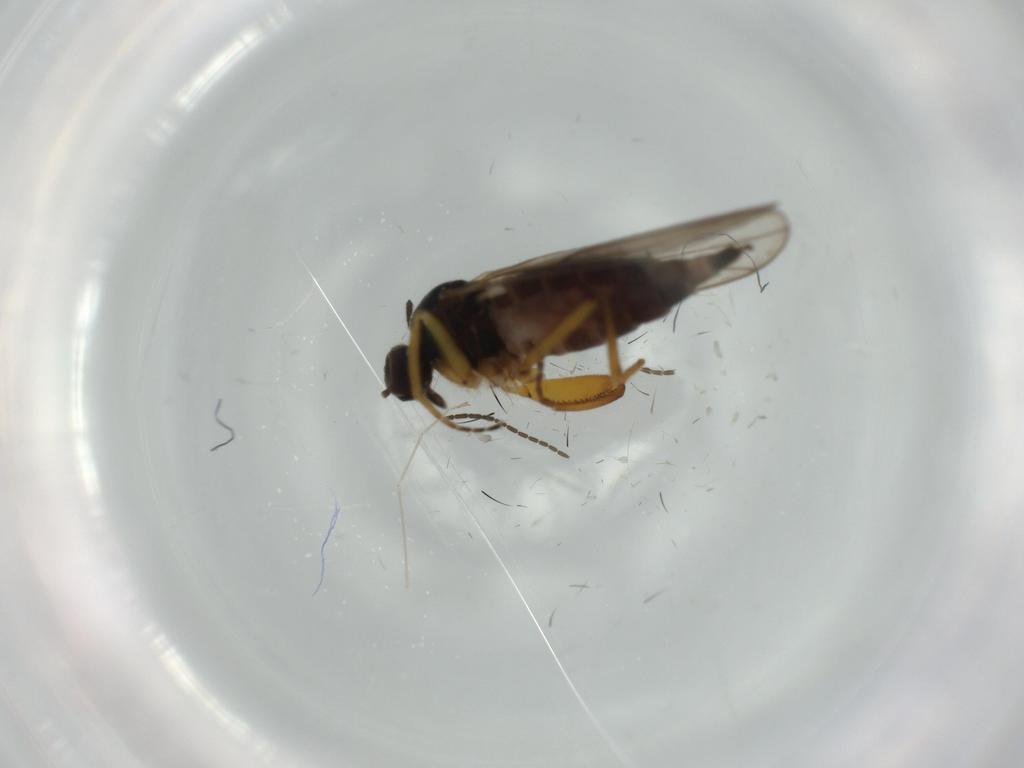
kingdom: Animalia
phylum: Arthropoda
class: Insecta
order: Diptera
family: Hybotidae
